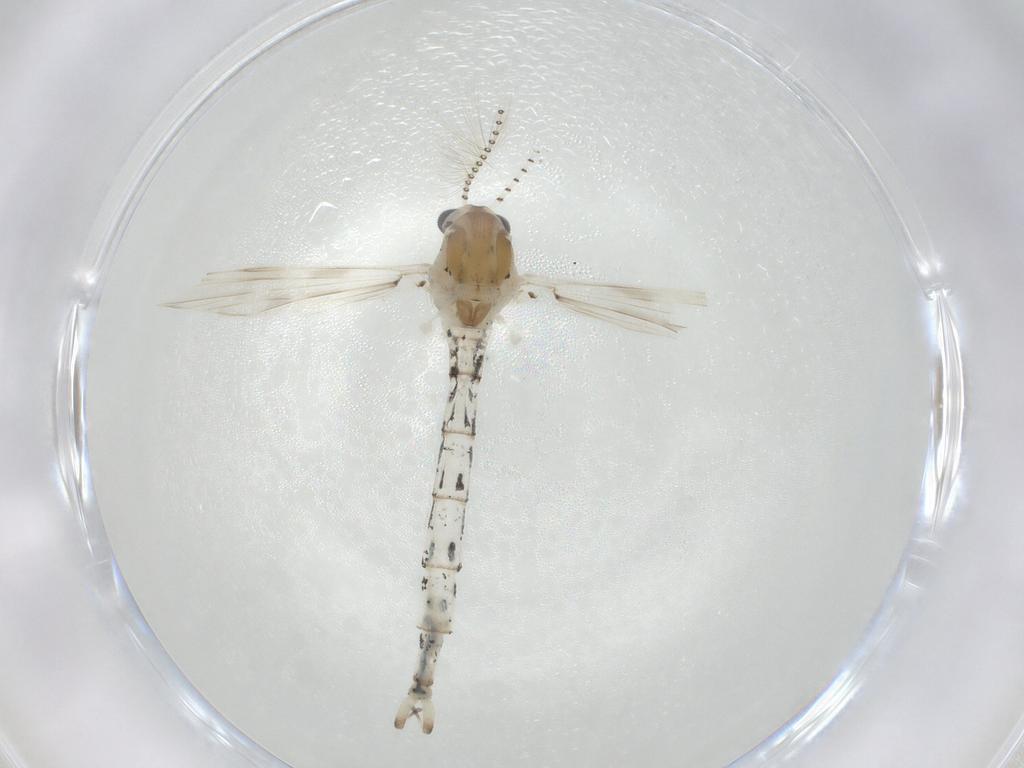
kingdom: Animalia
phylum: Arthropoda
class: Insecta
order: Diptera
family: Chaoboridae
